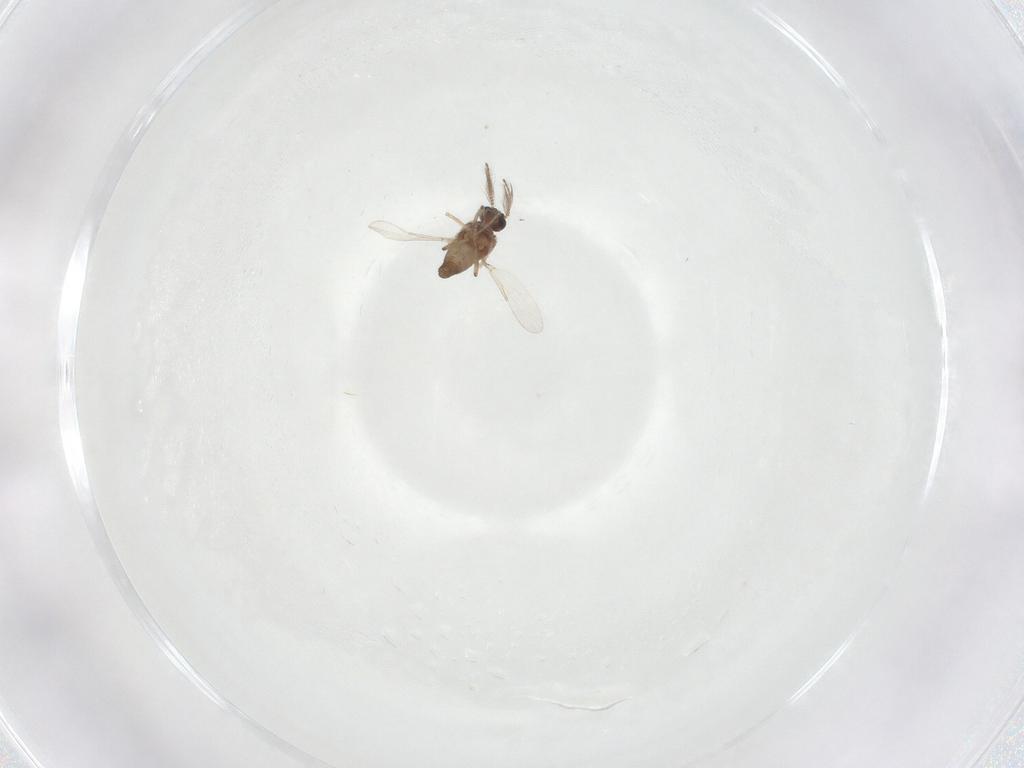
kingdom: Animalia
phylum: Arthropoda
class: Insecta
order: Diptera
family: Ceratopogonidae
